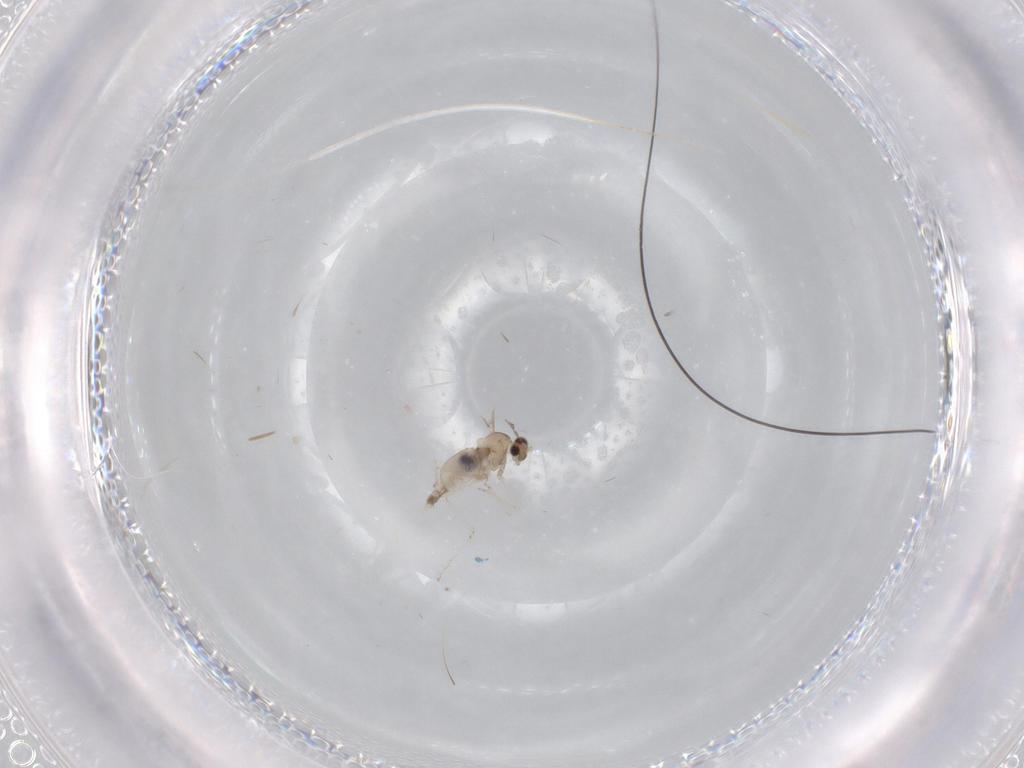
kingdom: Animalia
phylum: Arthropoda
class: Insecta
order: Diptera
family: Cecidomyiidae
